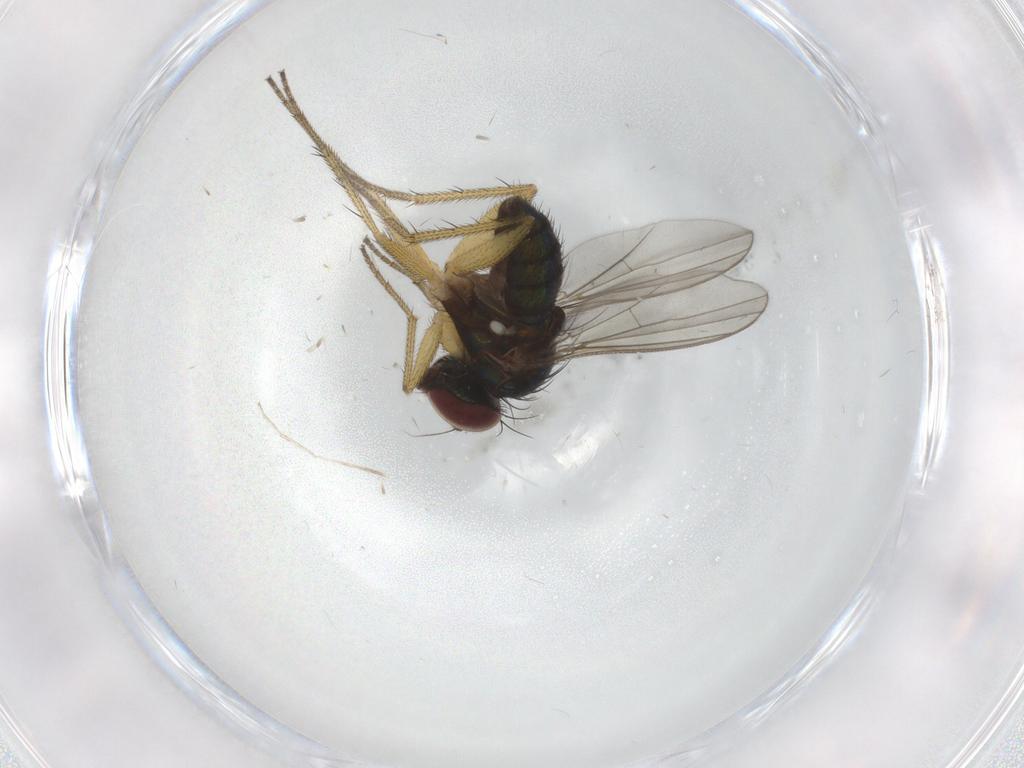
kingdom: Animalia
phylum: Arthropoda
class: Insecta
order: Diptera
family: Dolichopodidae
